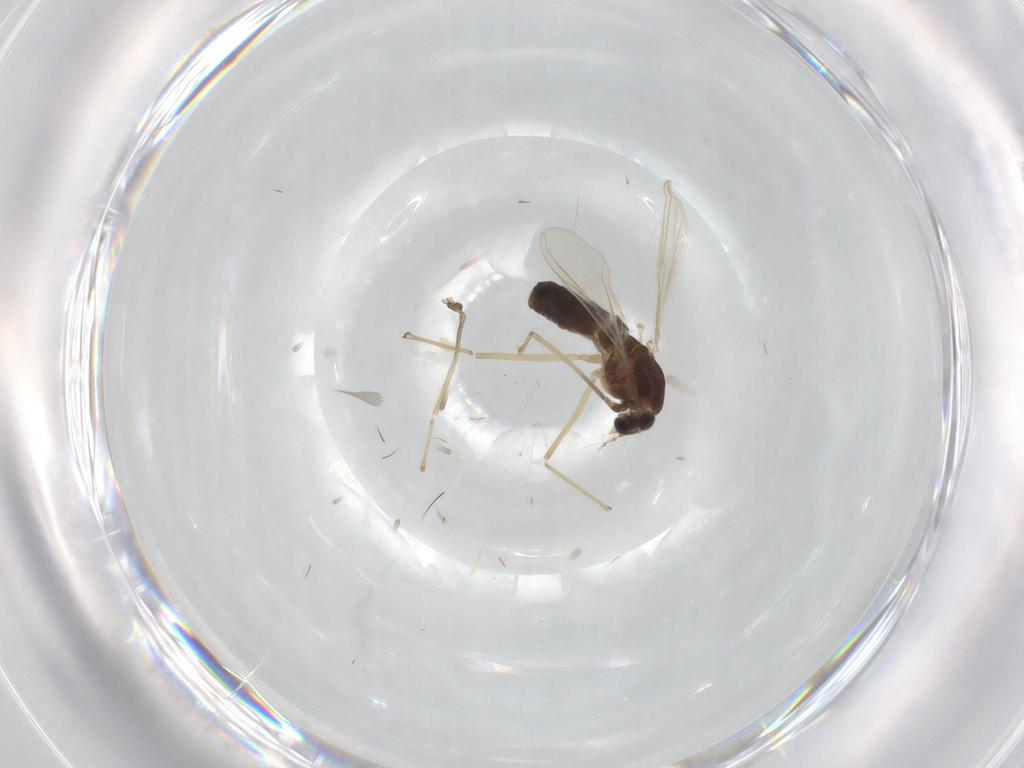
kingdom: Animalia
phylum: Arthropoda
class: Insecta
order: Diptera
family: Chironomidae
